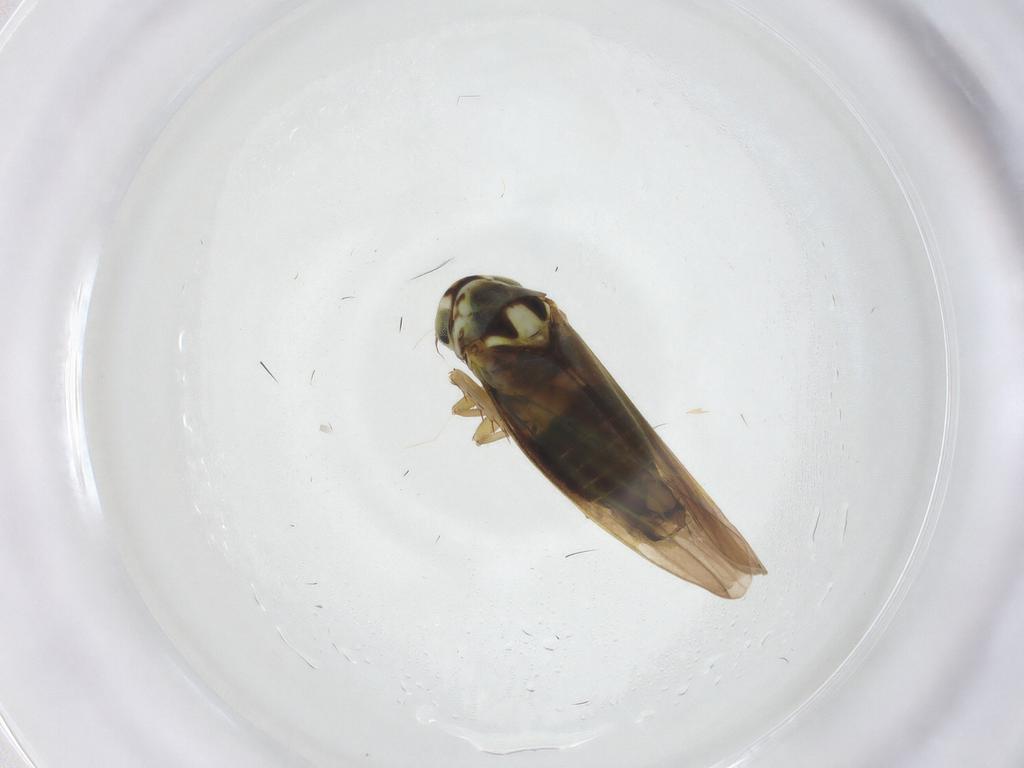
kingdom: Animalia
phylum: Arthropoda
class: Insecta
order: Hemiptera
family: Cicadellidae
